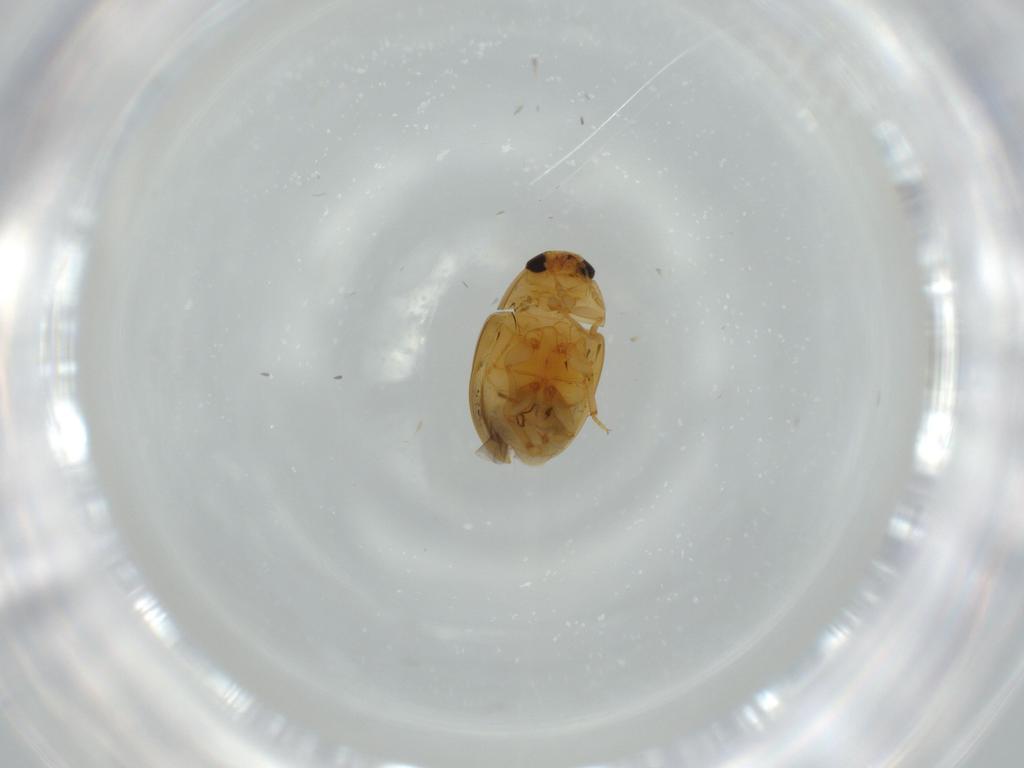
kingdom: Animalia
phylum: Arthropoda
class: Insecta
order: Coleoptera
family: Phalacridae
